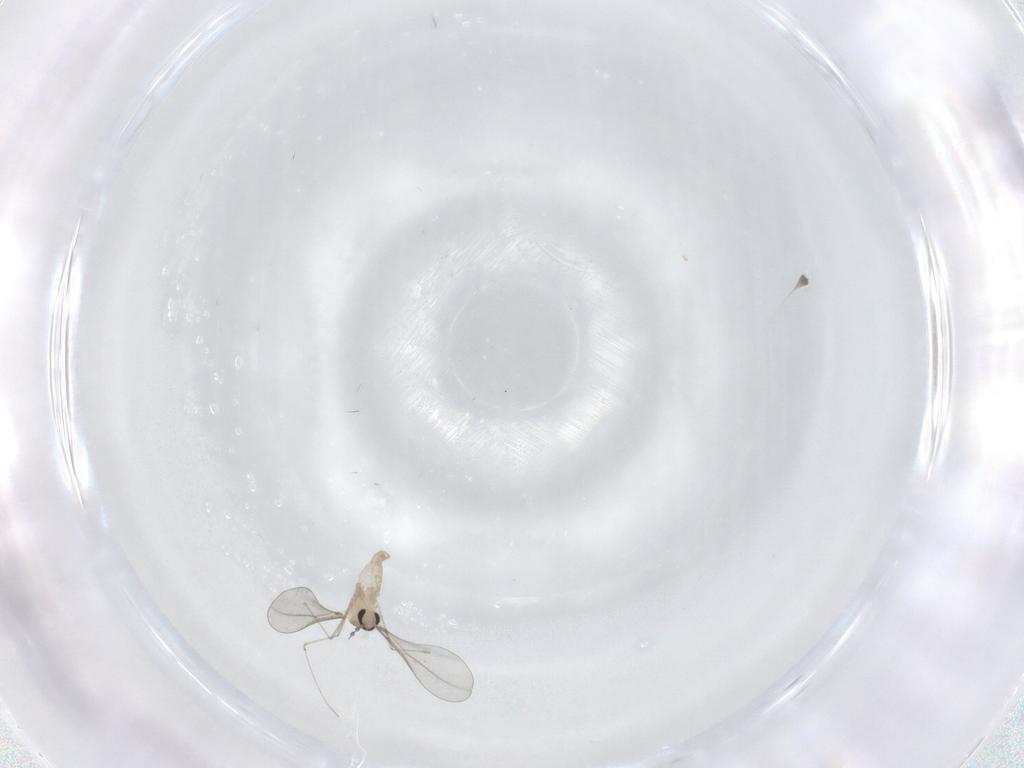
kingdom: Animalia
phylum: Arthropoda
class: Insecta
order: Diptera
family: Cecidomyiidae
